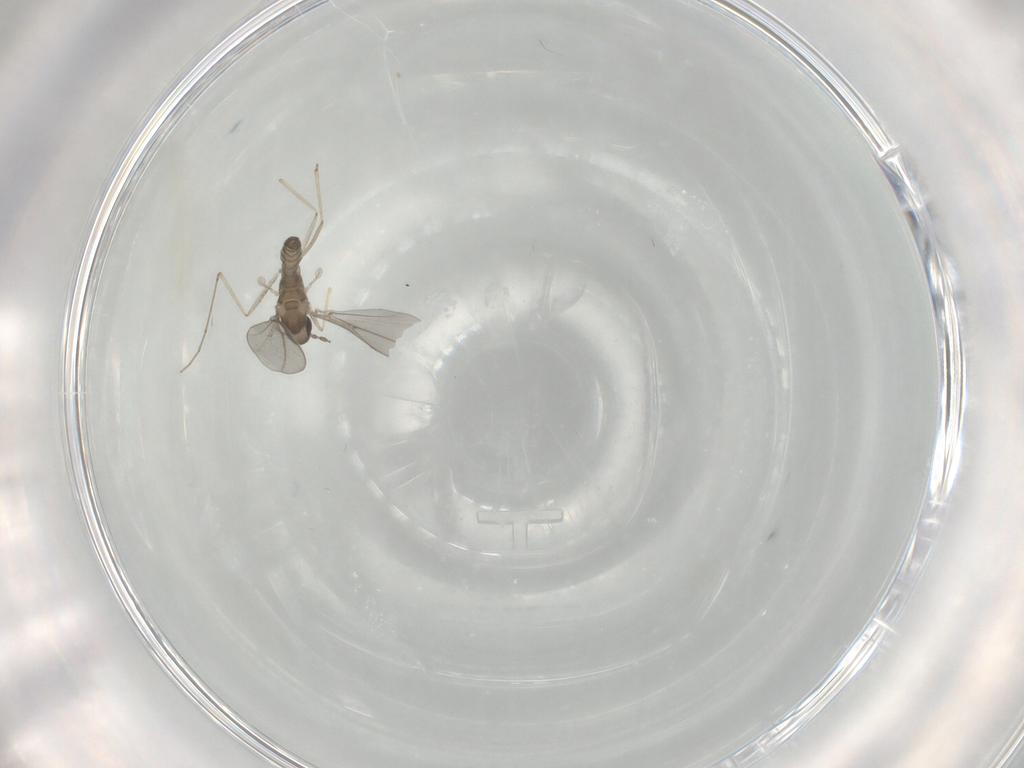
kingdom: Animalia
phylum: Arthropoda
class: Insecta
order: Diptera
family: Cecidomyiidae
